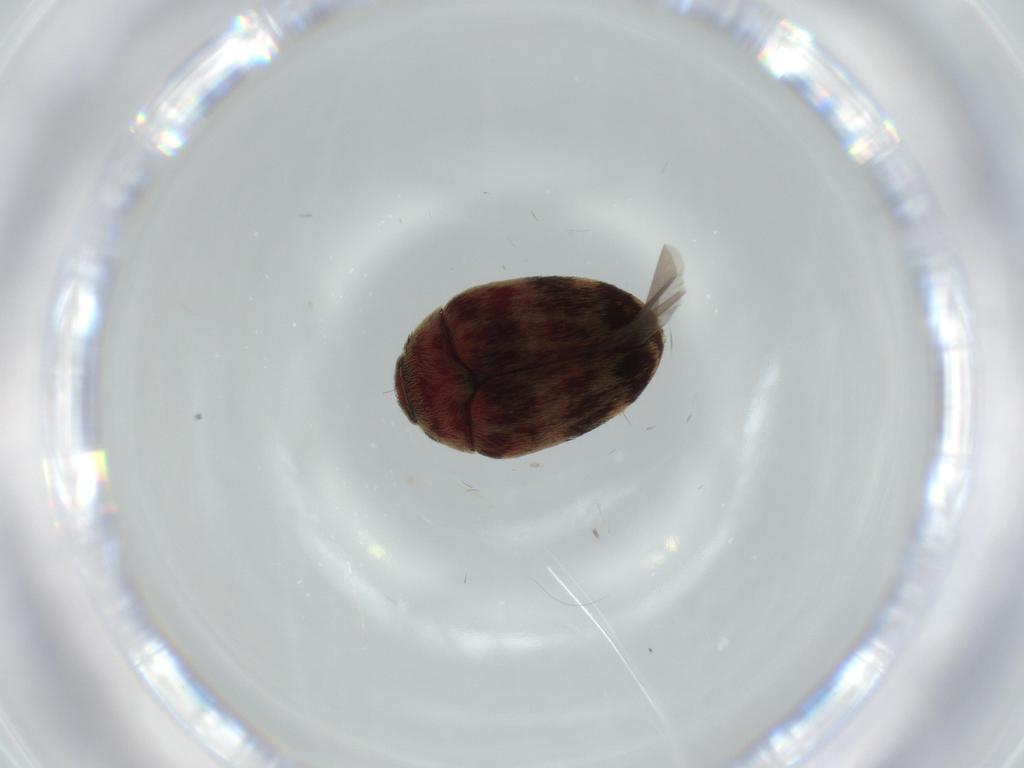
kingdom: Animalia
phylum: Arthropoda
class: Insecta
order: Coleoptera
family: Dermestidae
